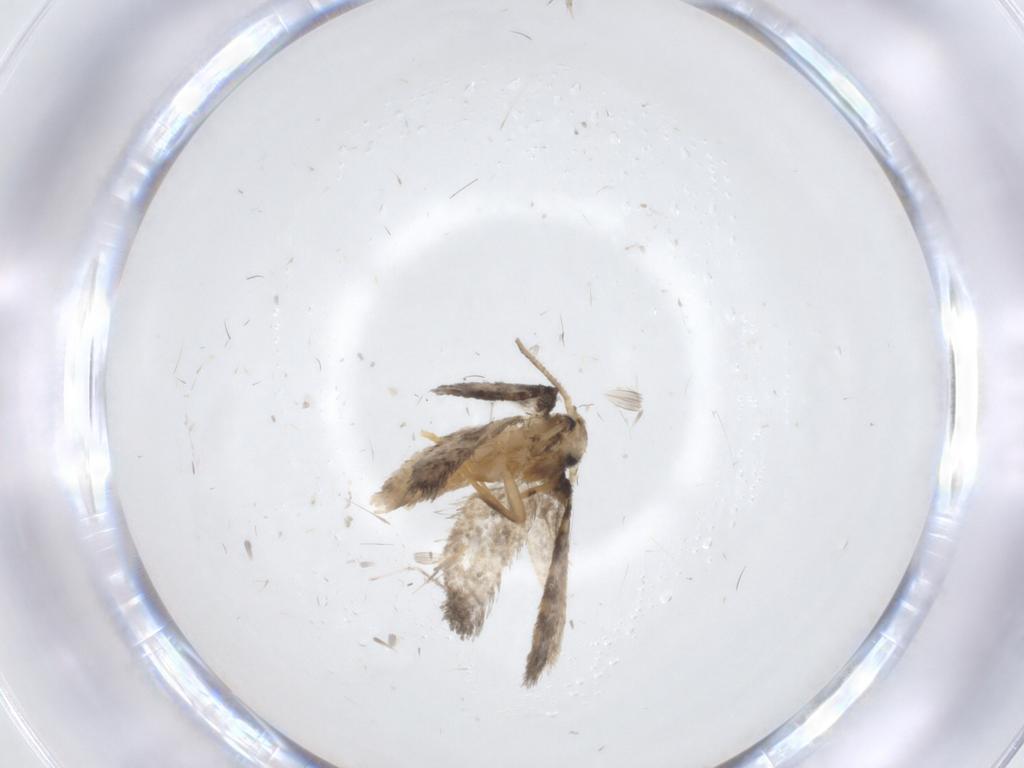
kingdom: Animalia
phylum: Arthropoda
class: Insecta
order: Lepidoptera
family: Psychidae
